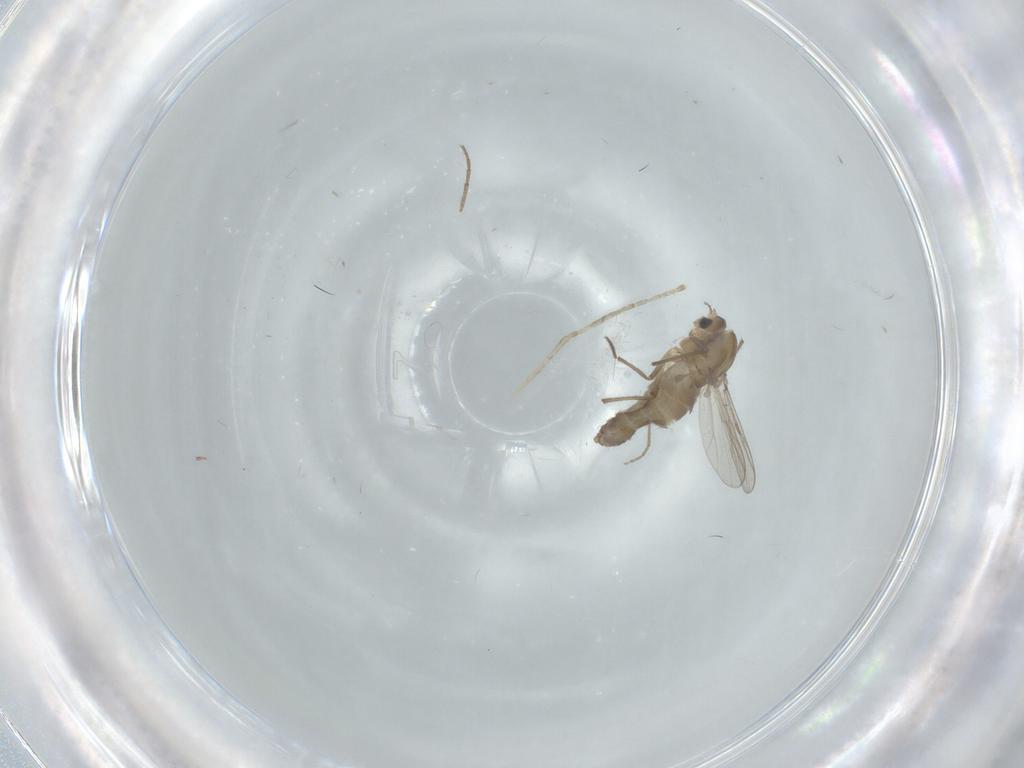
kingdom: Animalia
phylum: Arthropoda
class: Insecta
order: Diptera
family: Chironomidae
